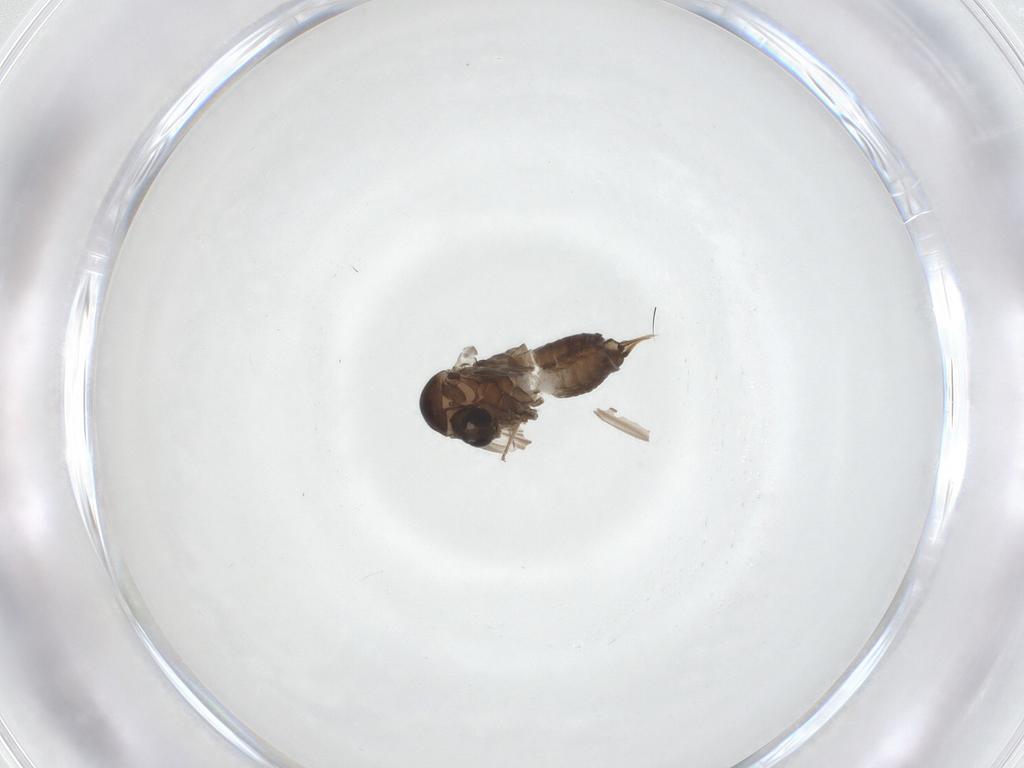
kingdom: Animalia
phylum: Arthropoda
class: Insecta
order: Diptera
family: Psychodidae
